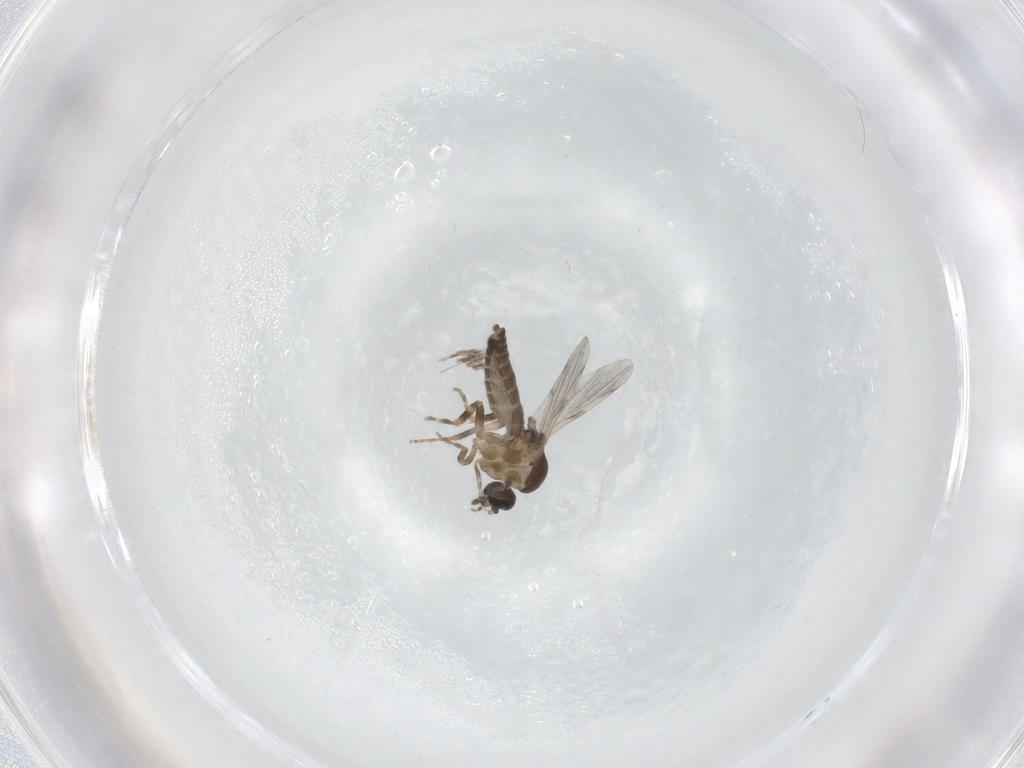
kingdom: Animalia
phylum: Arthropoda
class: Insecta
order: Diptera
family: Ceratopogonidae
